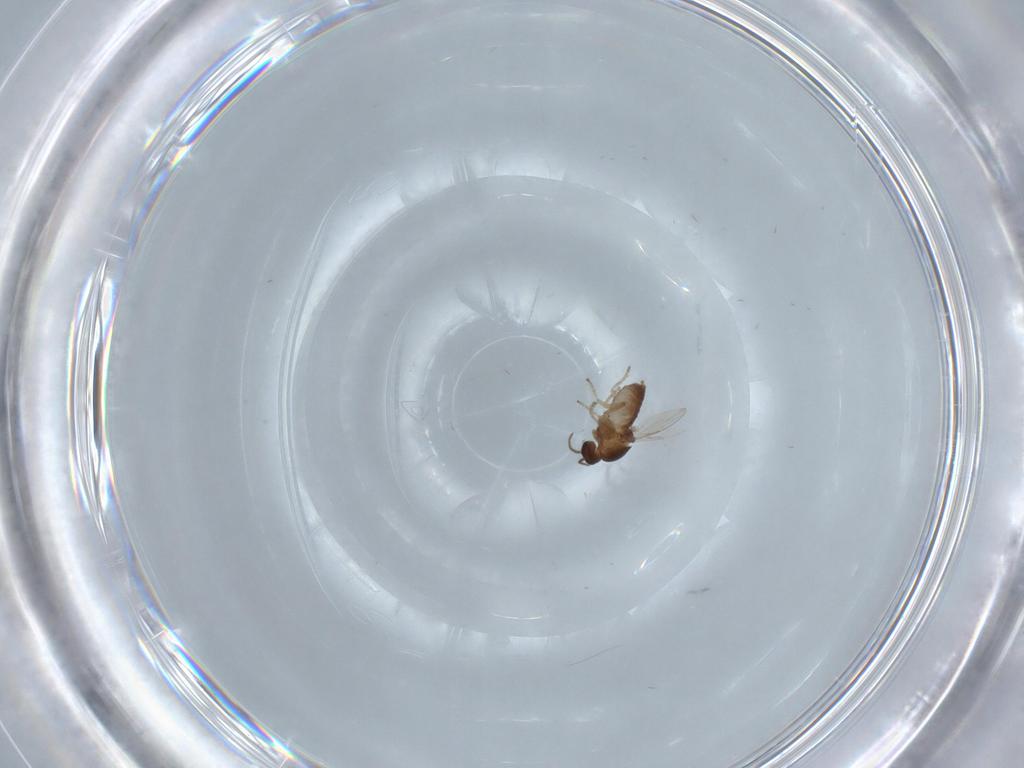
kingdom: Animalia
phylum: Arthropoda
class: Insecta
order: Diptera
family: Ceratopogonidae
